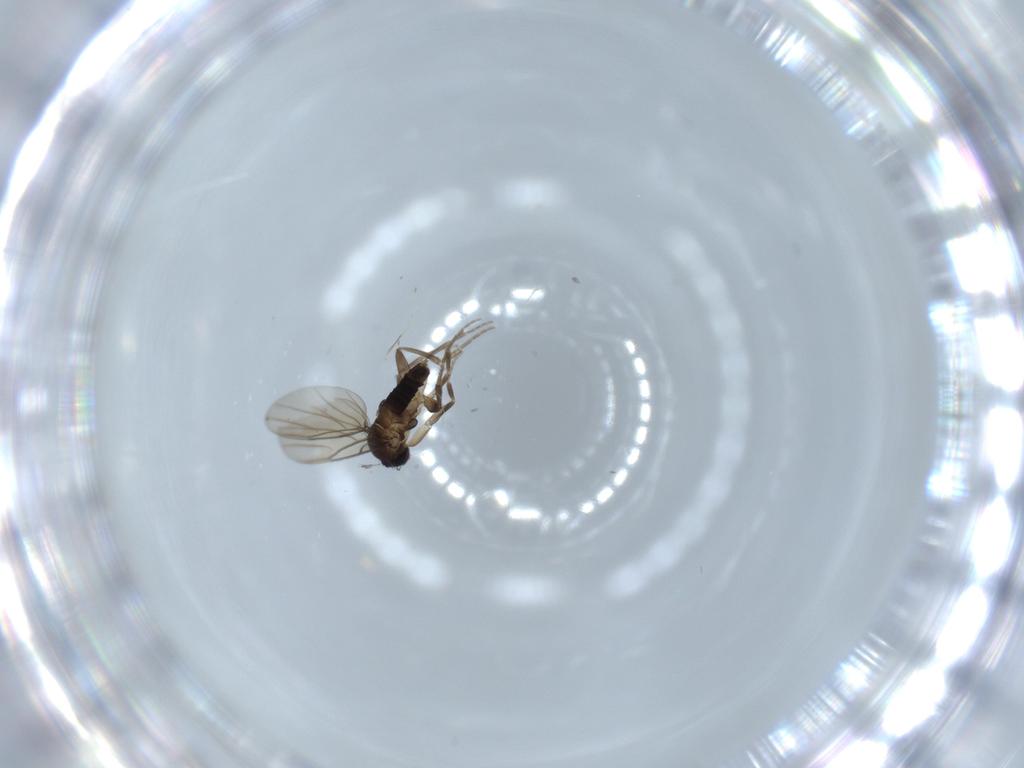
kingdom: Animalia
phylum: Arthropoda
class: Insecta
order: Diptera
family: Phoridae
